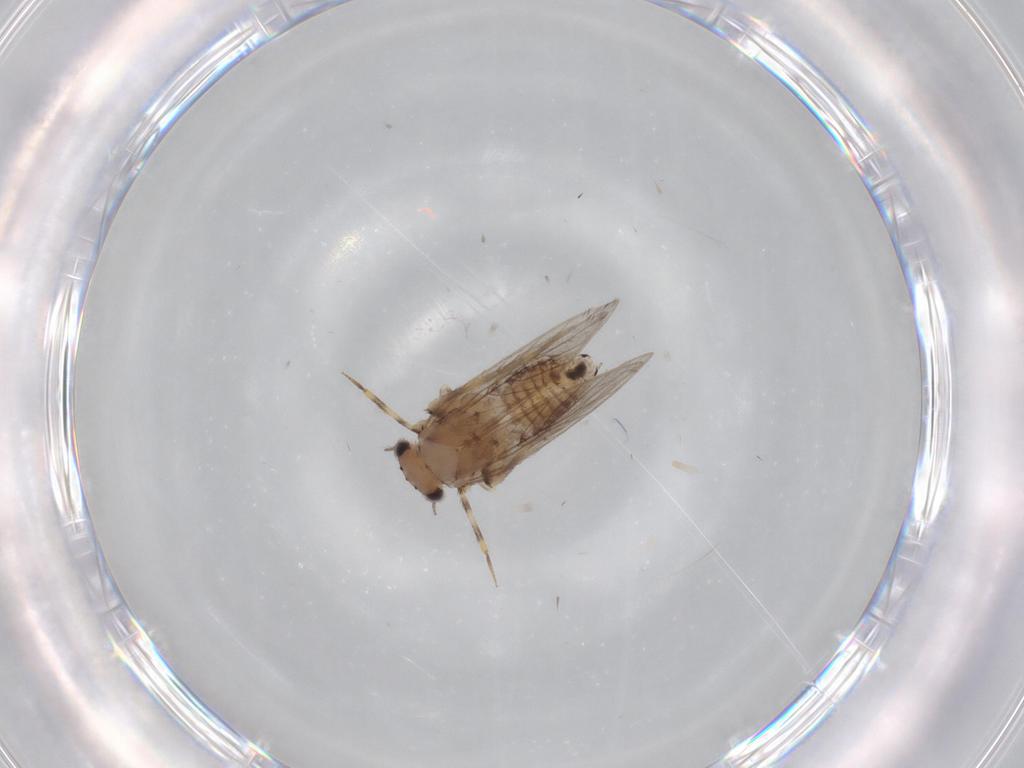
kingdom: Animalia
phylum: Arthropoda
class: Insecta
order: Psocodea
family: Lepidopsocidae
